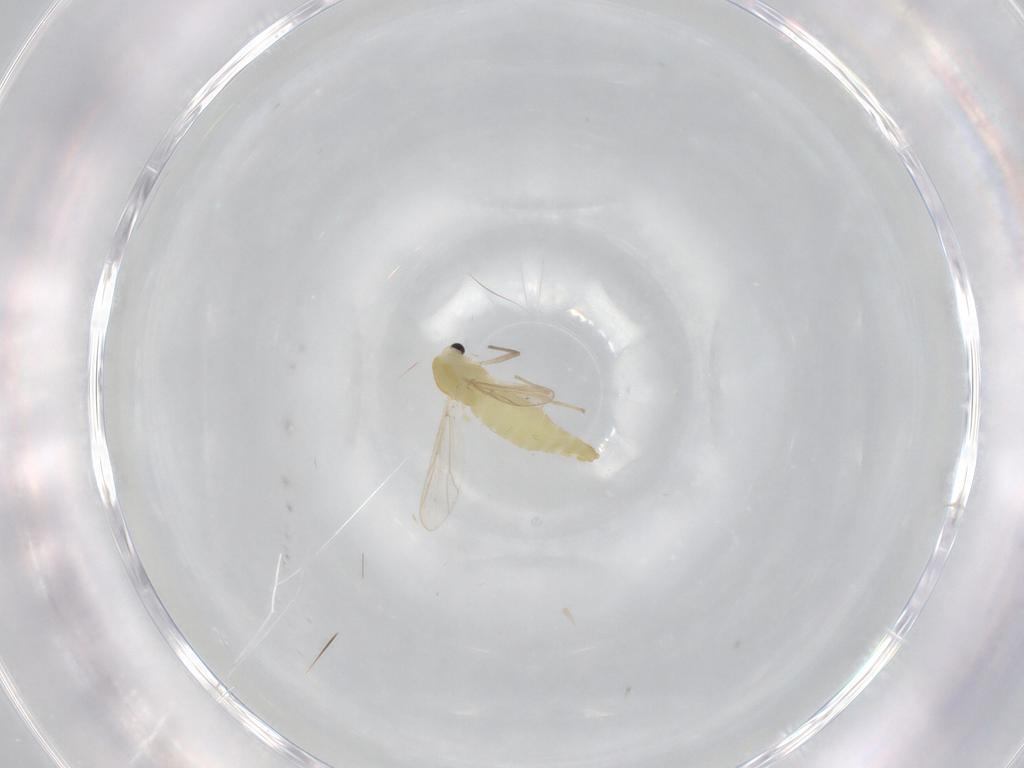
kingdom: Animalia
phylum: Arthropoda
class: Insecta
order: Diptera
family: Chironomidae
